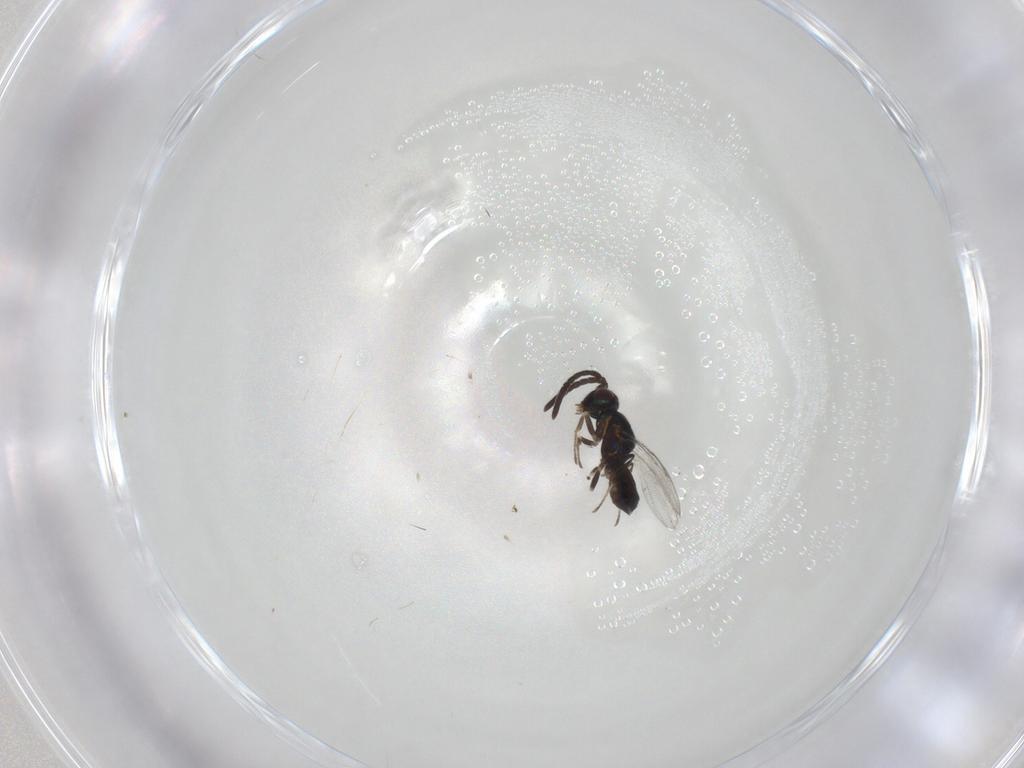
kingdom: Animalia
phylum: Arthropoda
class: Insecta
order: Hymenoptera
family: Eupelmidae
